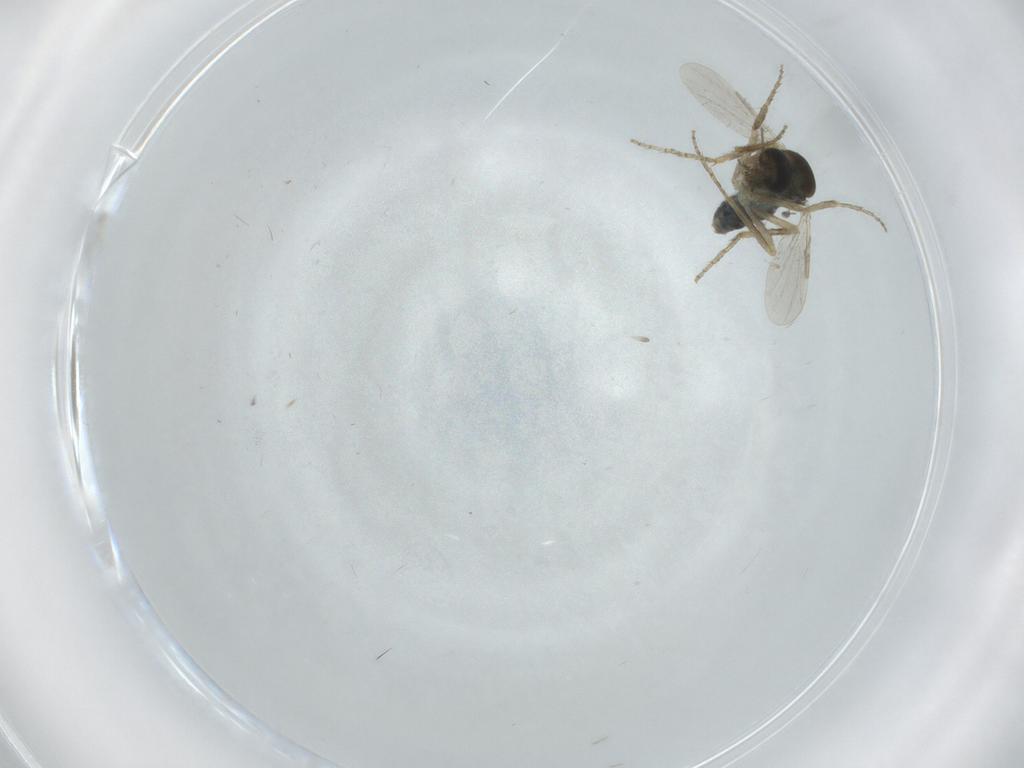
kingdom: Animalia
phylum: Arthropoda
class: Insecta
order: Diptera
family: Ceratopogonidae
